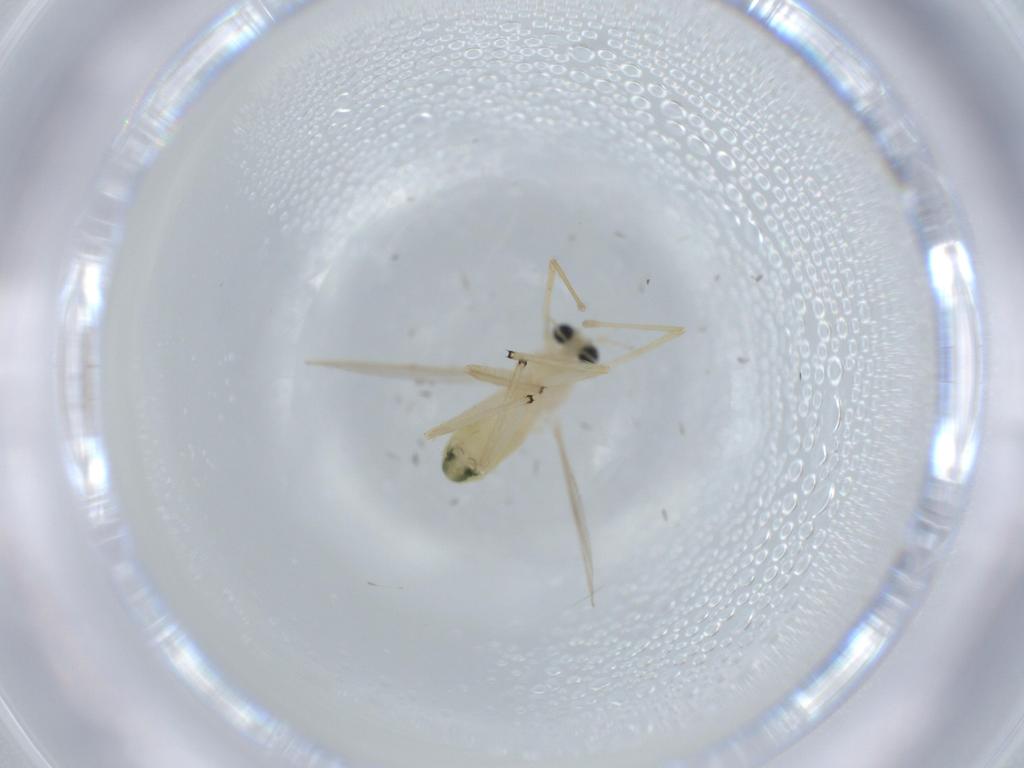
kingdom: Animalia
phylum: Arthropoda
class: Insecta
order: Diptera
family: Chironomidae
